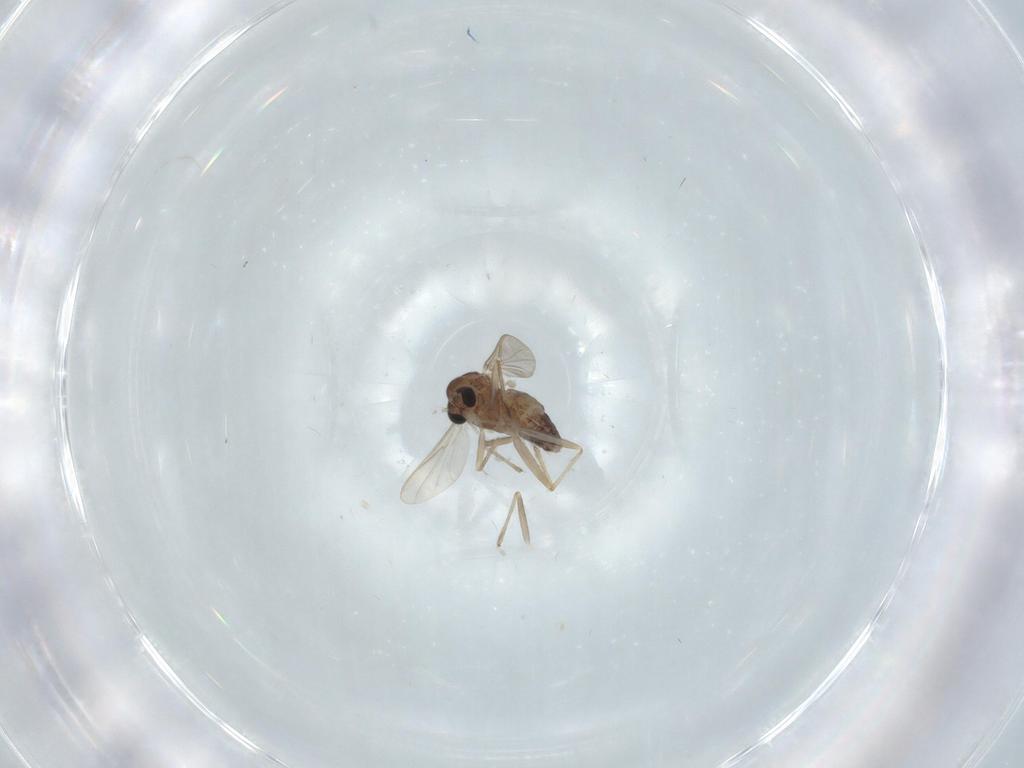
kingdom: Animalia
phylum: Arthropoda
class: Insecta
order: Diptera
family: Chironomidae
